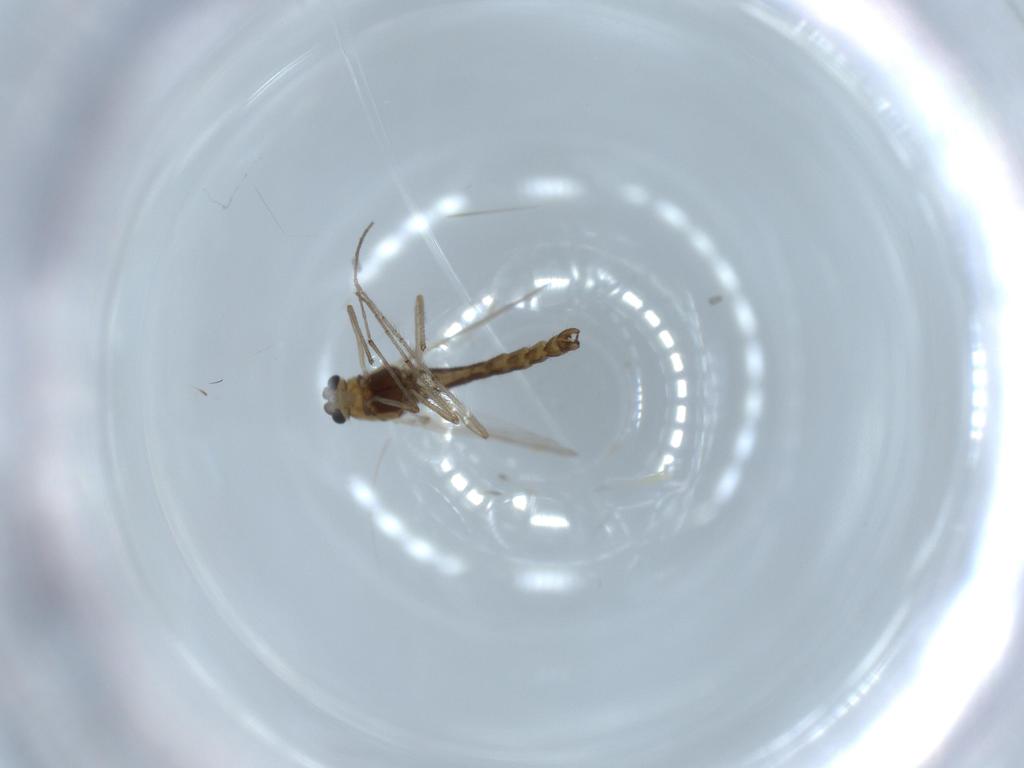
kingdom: Animalia
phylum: Arthropoda
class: Insecta
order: Diptera
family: Chironomidae
